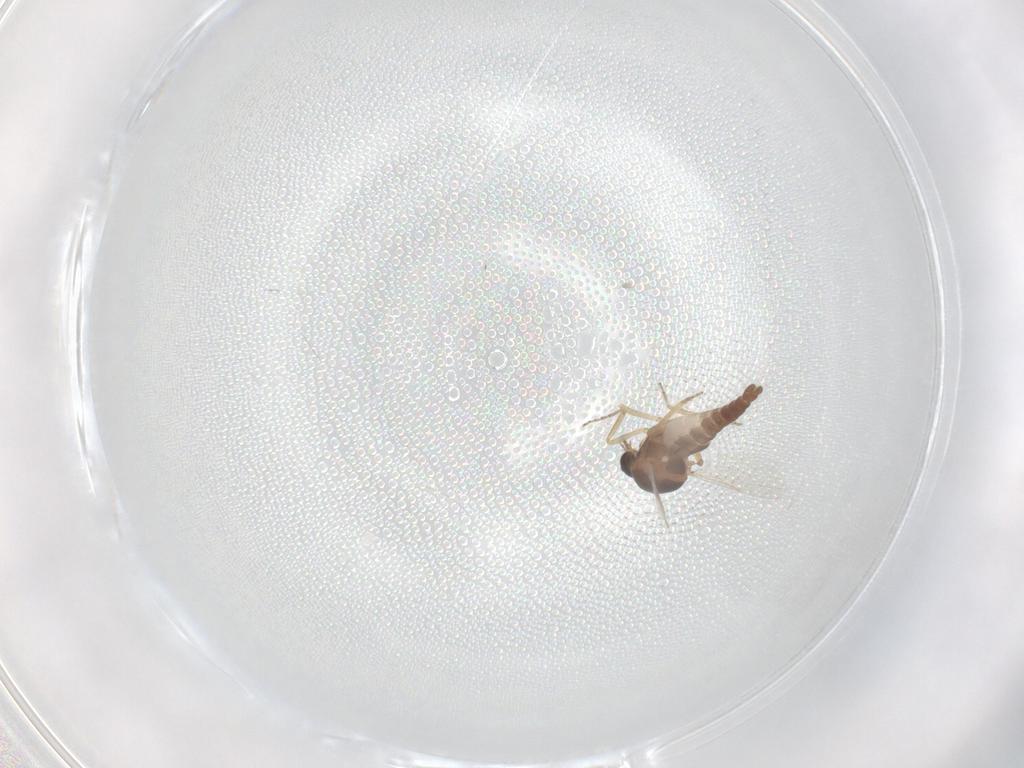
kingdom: Animalia
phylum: Arthropoda
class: Insecta
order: Diptera
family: Ceratopogonidae
